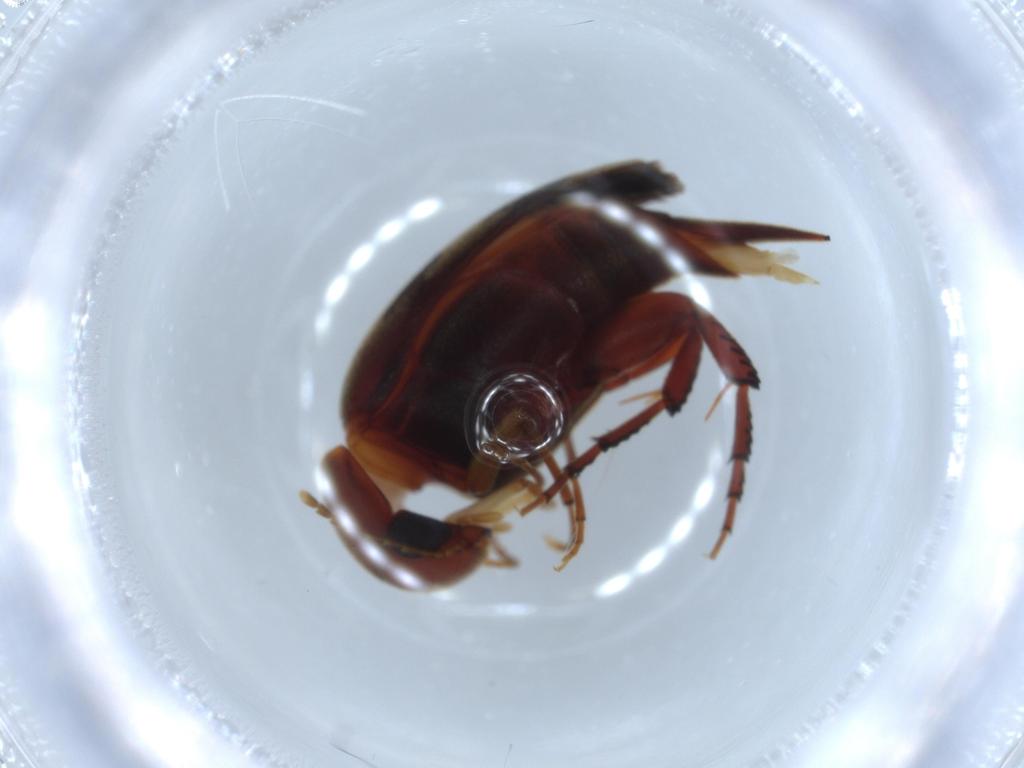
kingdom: Animalia
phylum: Arthropoda
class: Insecta
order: Coleoptera
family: Mordellidae
